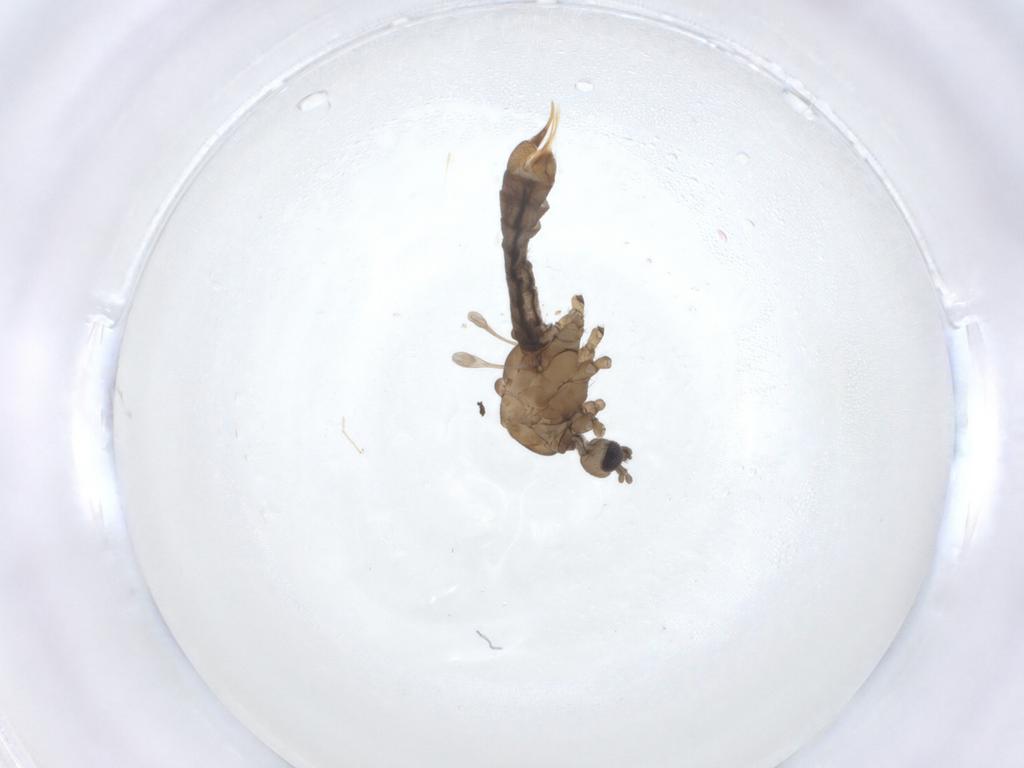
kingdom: Animalia
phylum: Arthropoda
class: Insecta
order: Diptera
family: Limoniidae
